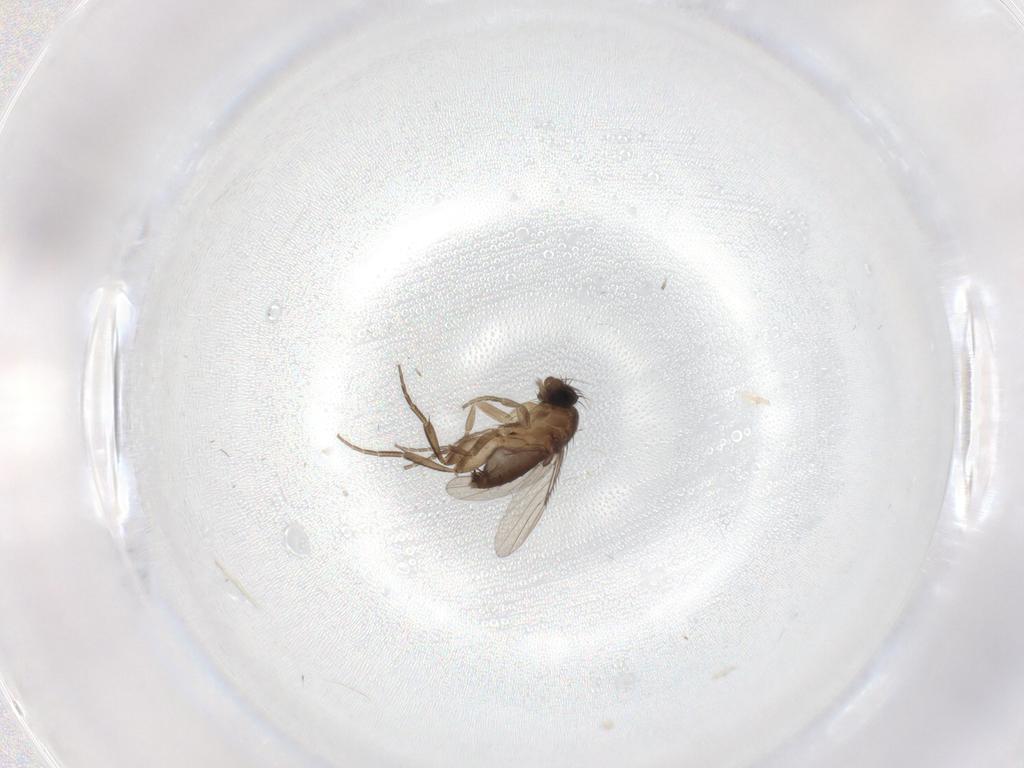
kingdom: Animalia
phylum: Arthropoda
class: Insecta
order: Diptera
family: Phoridae
